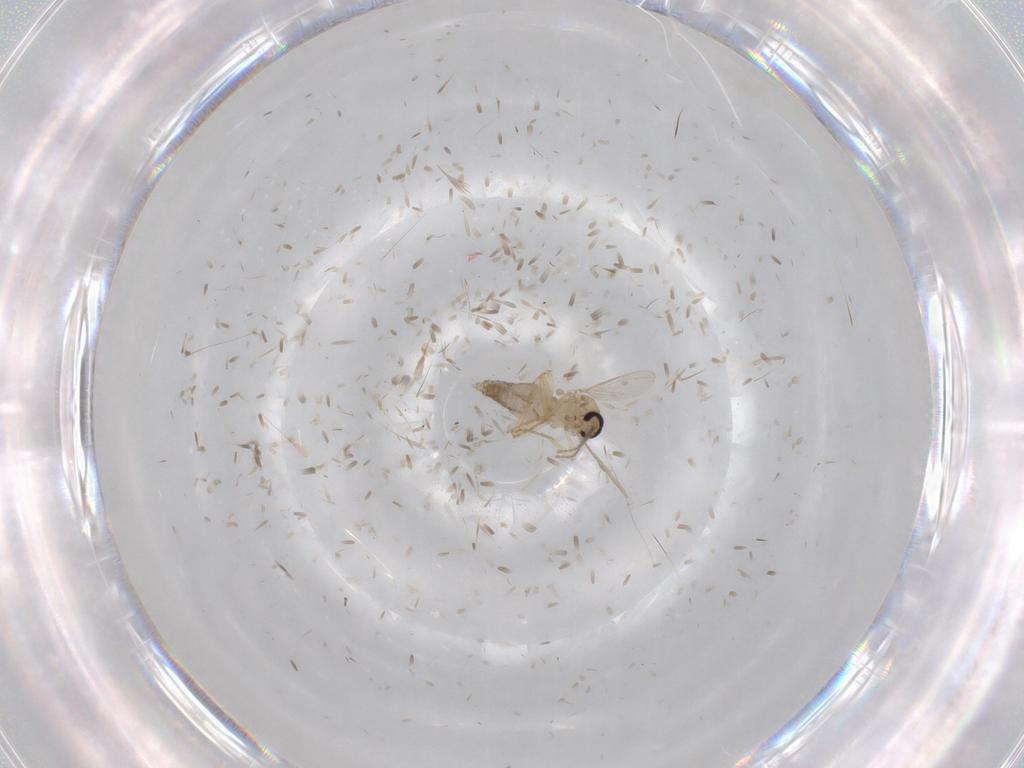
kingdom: Animalia
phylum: Arthropoda
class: Insecta
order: Diptera
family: Ceratopogonidae
